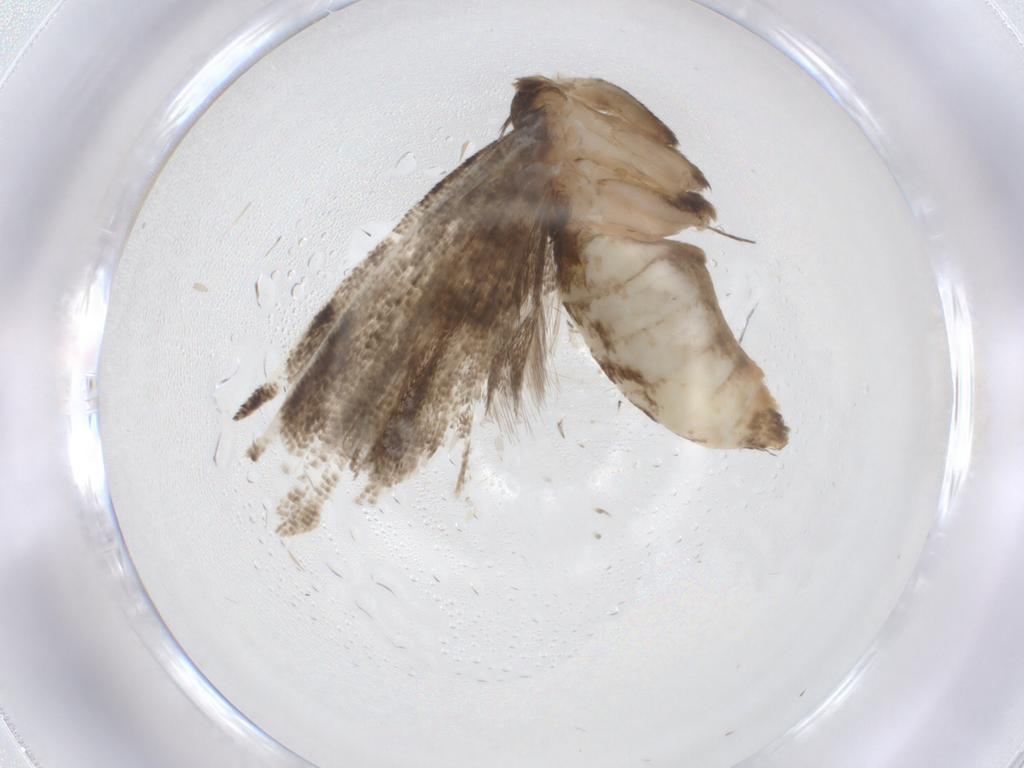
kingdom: Animalia
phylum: Arthropoda
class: Insecta
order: Lepidoptera
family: Tortricidae
